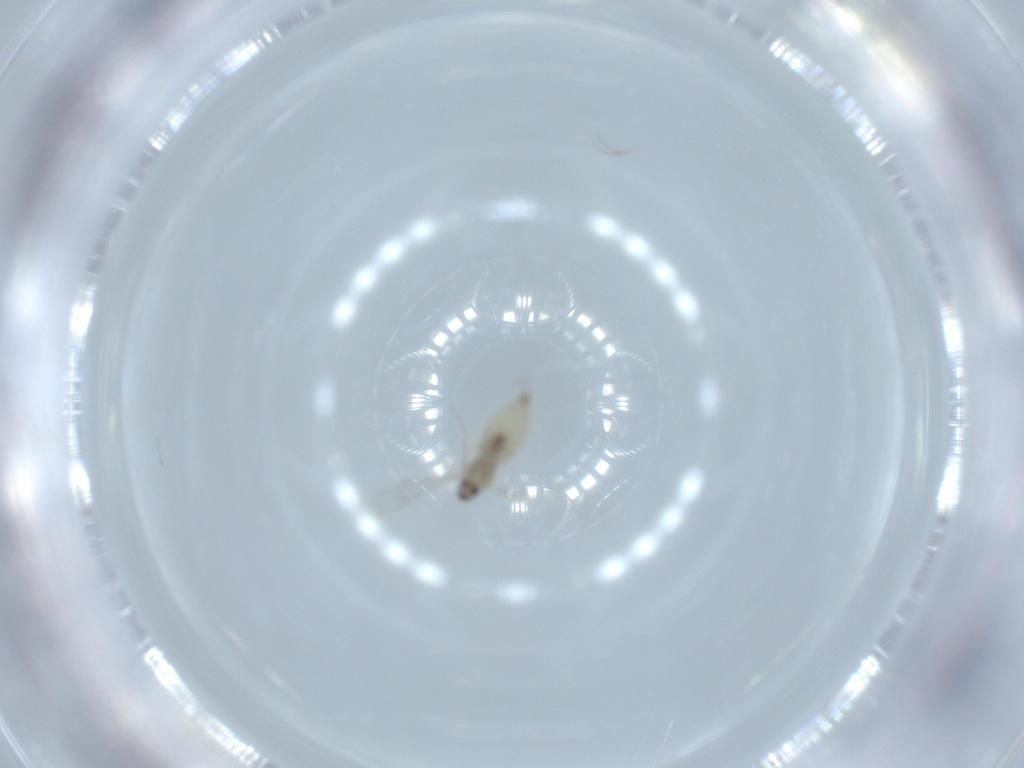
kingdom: Animalia
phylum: Arthropoda
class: Insecta
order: Diptera
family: Cecidomyiidae
